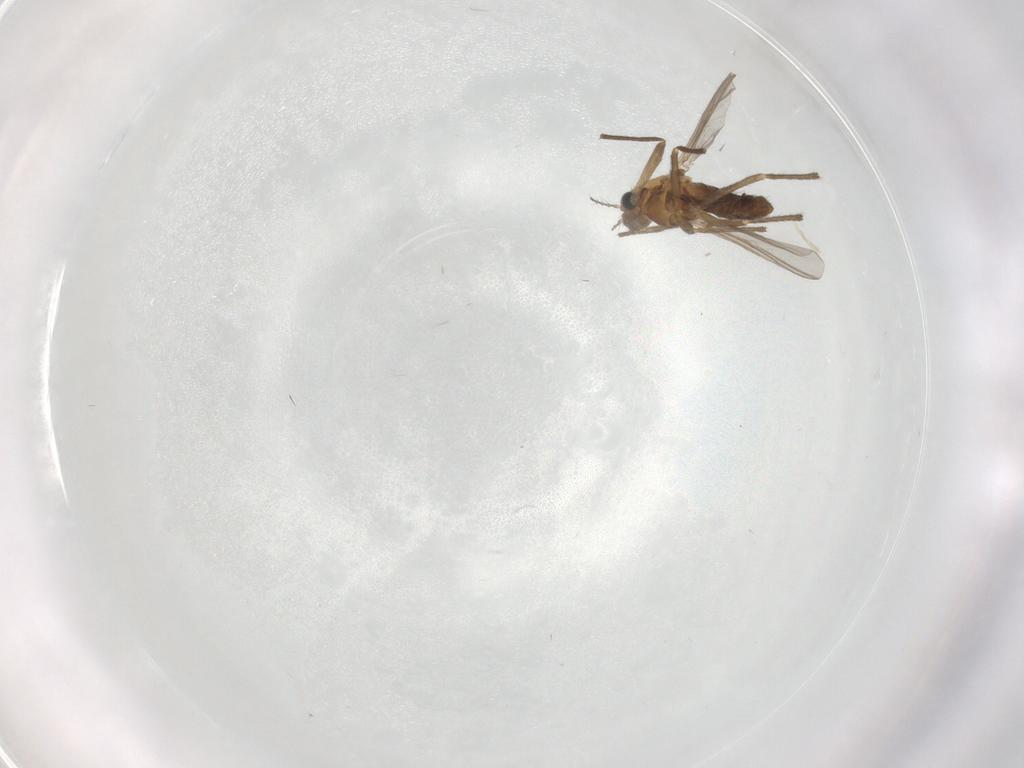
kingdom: Animalia
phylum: Arthropoda
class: Insecta
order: Diptera
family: Chironomidae
